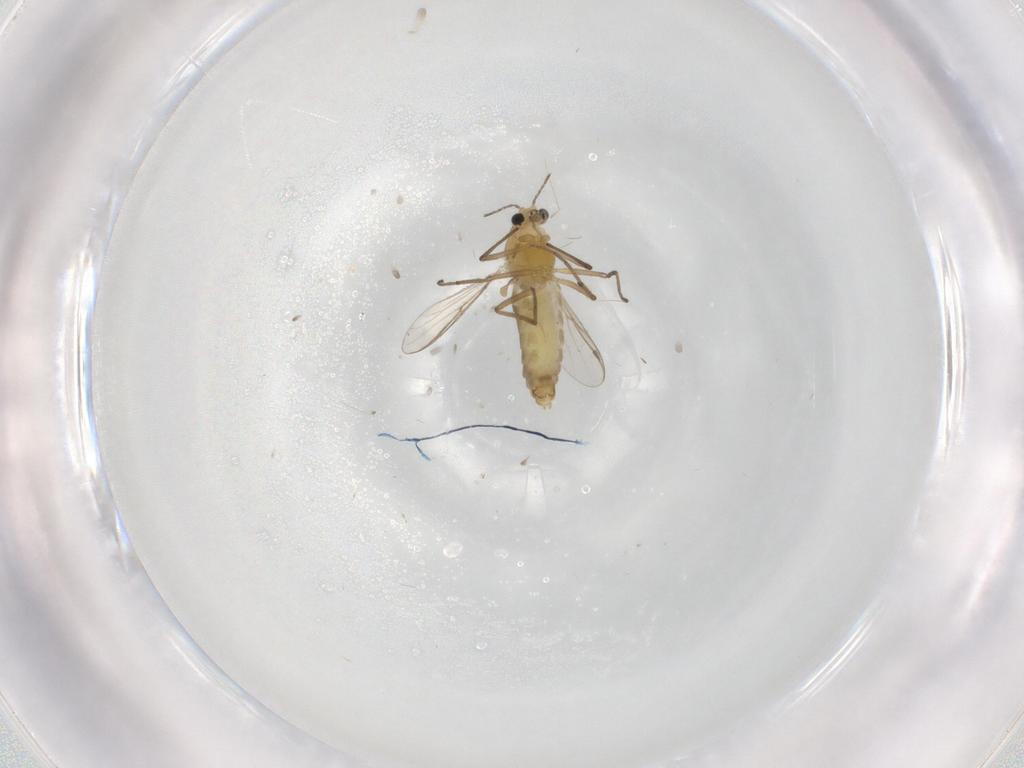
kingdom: Animalia
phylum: Arthropoda
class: Insecta
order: Diptera
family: Chironomidae
